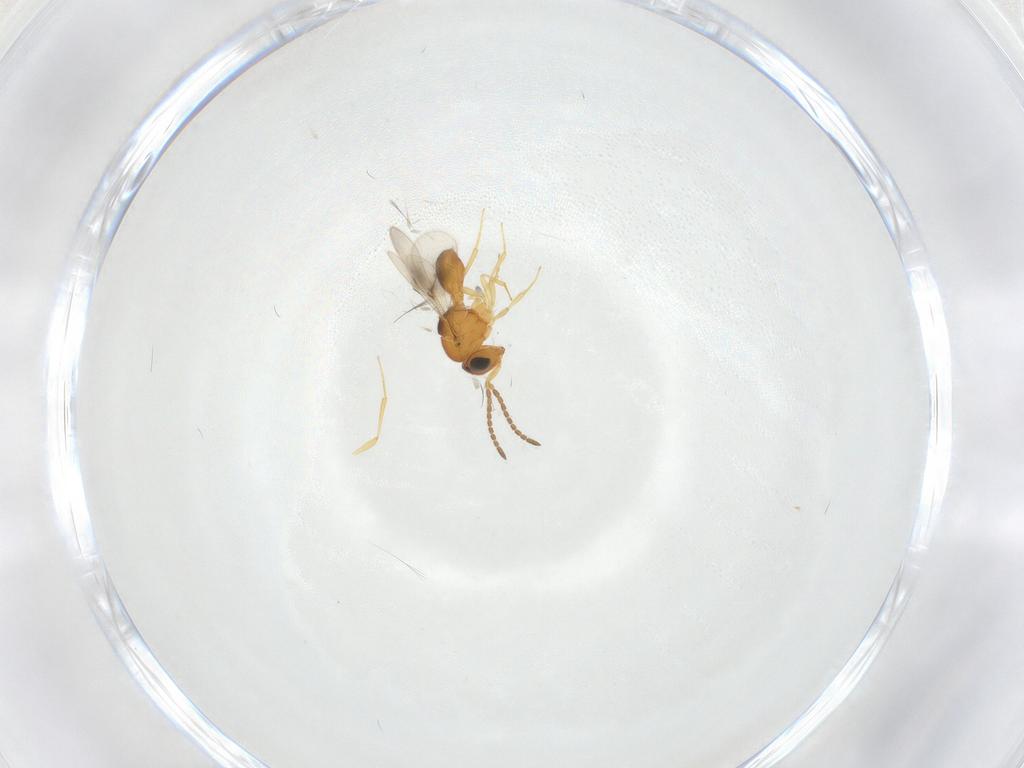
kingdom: Animalia
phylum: Arthropoda
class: Insecta
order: Hymenoptera
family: Scelionidae
